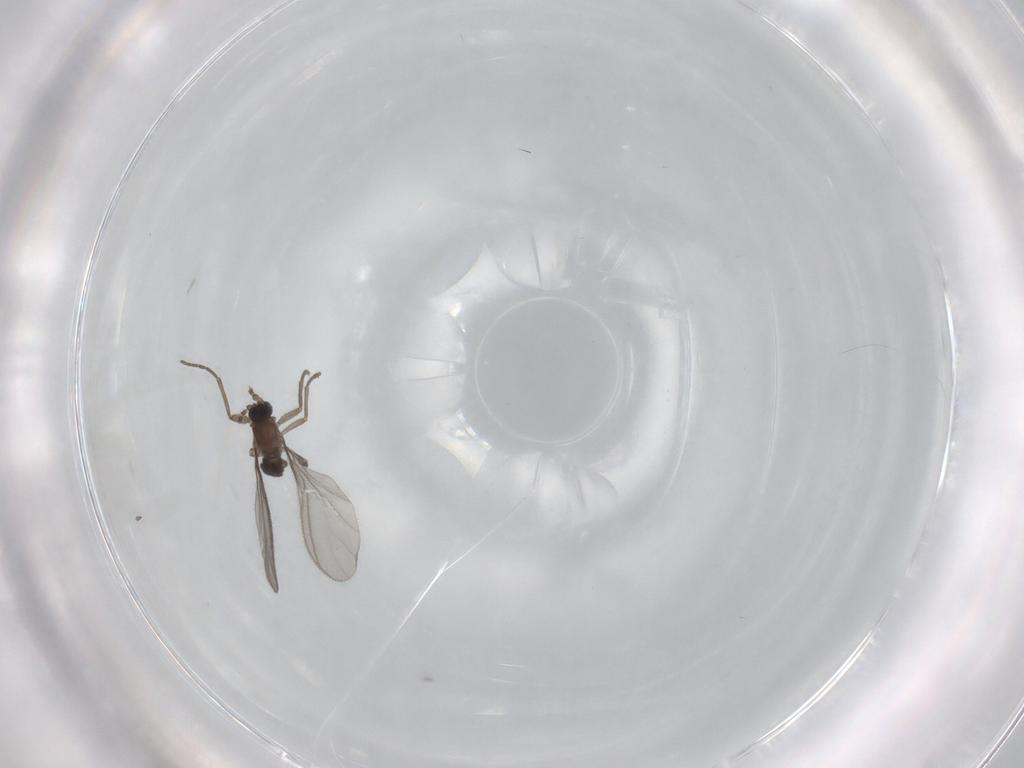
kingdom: Animalia
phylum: Arthropoda
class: Insecta
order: Diptera
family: Sciaridae
